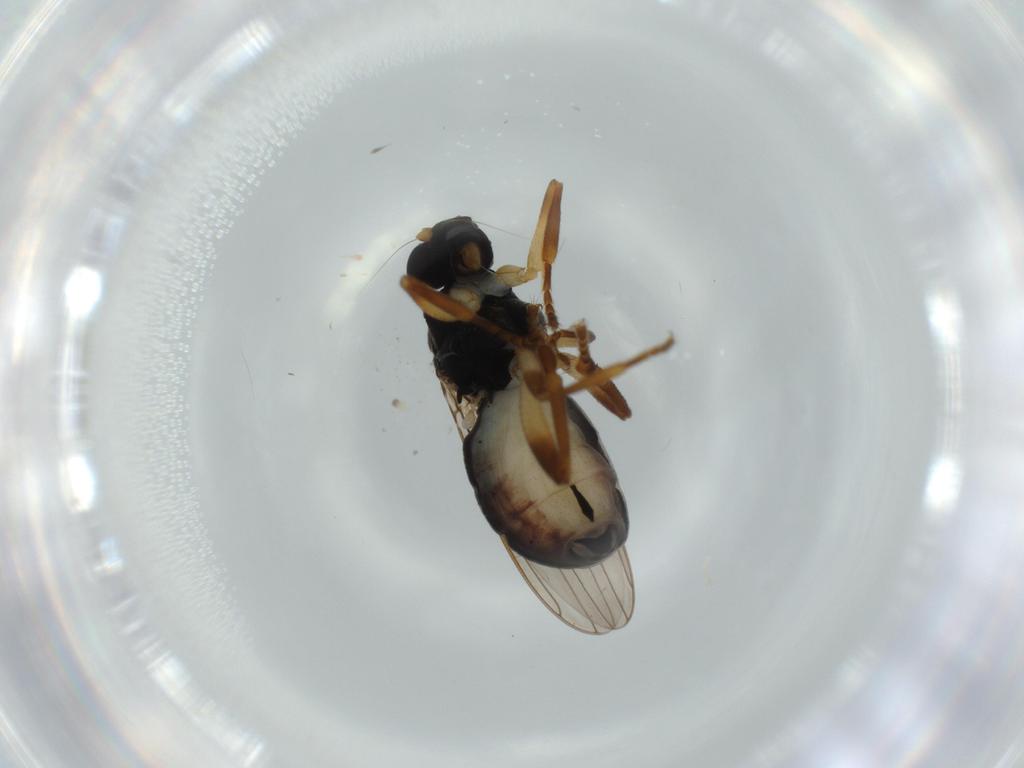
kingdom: Animalia
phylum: Arthropoda
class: Insecta
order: Diptera
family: Sphaeroceridae
